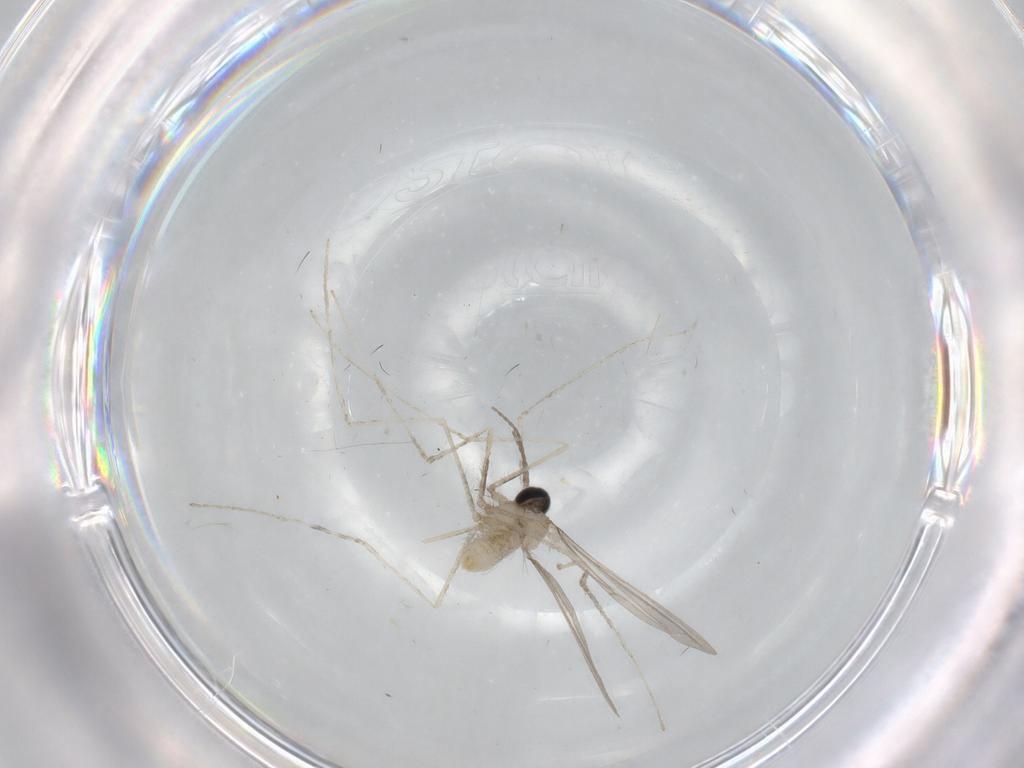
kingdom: Animalia
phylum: Arthropoda
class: Insecta
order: Diptera
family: Cecidomyiidae
